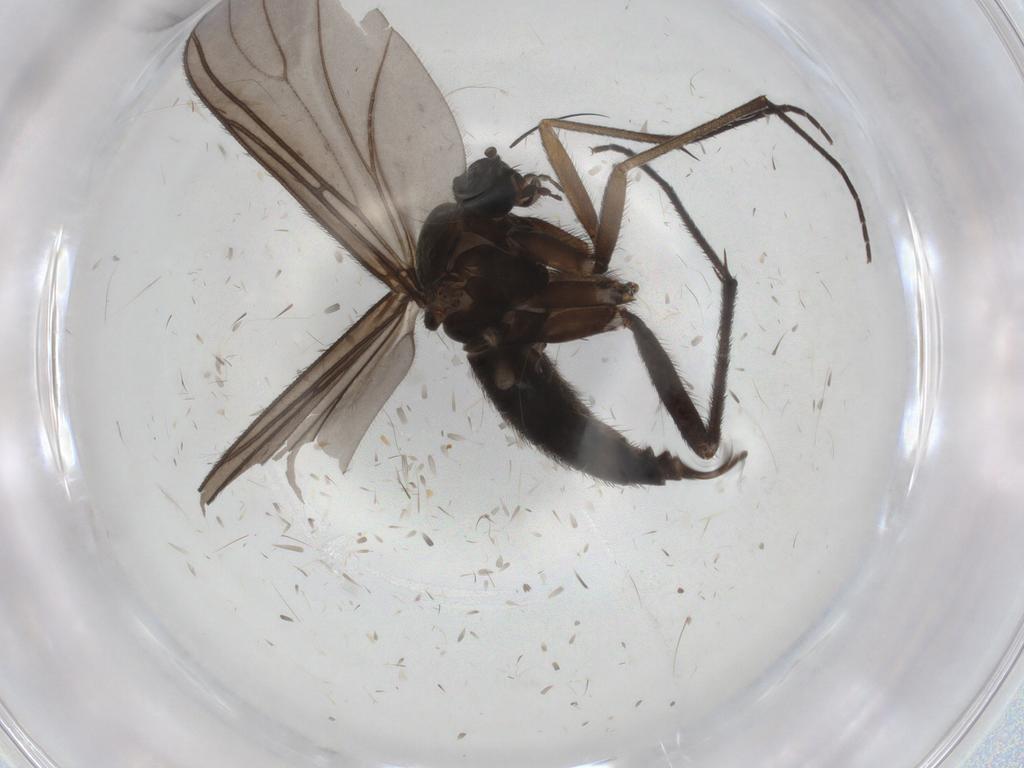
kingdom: Animalia
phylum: Arthropoda
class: Insecta
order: Diptera
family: Sciaridae
